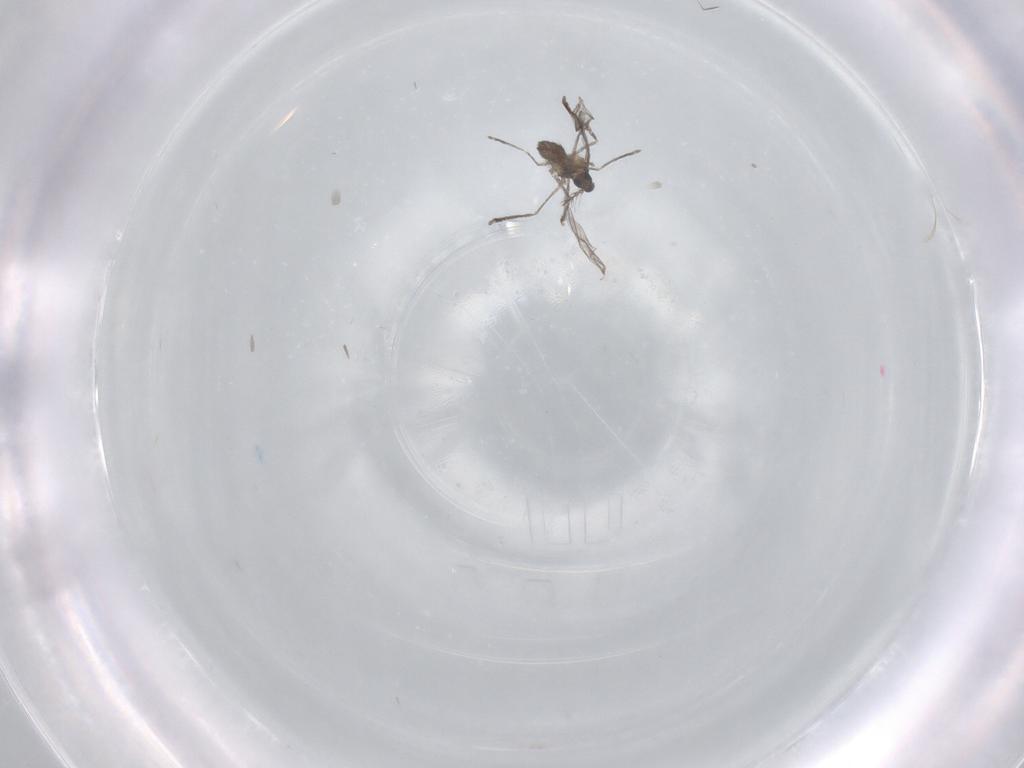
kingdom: Animalia
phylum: Arthropoda
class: Insecta
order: Diptera
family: Cecidomyiidae
